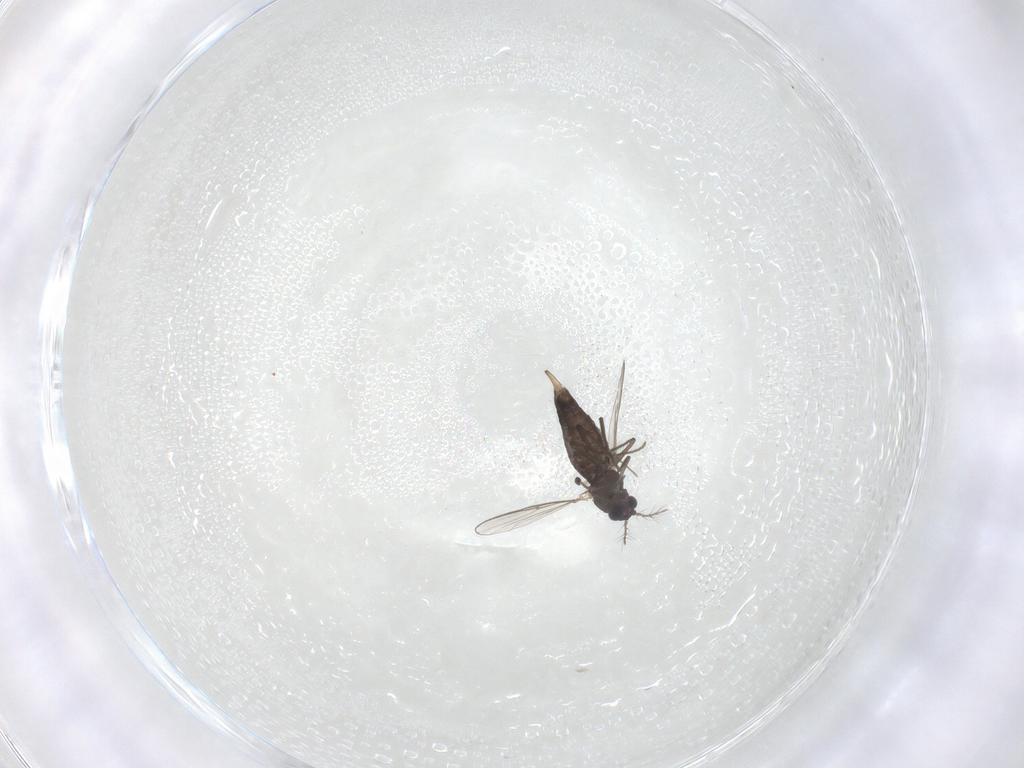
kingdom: Animalia
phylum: Arthropoda
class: Insecta
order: Diptera
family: Chironomidae
